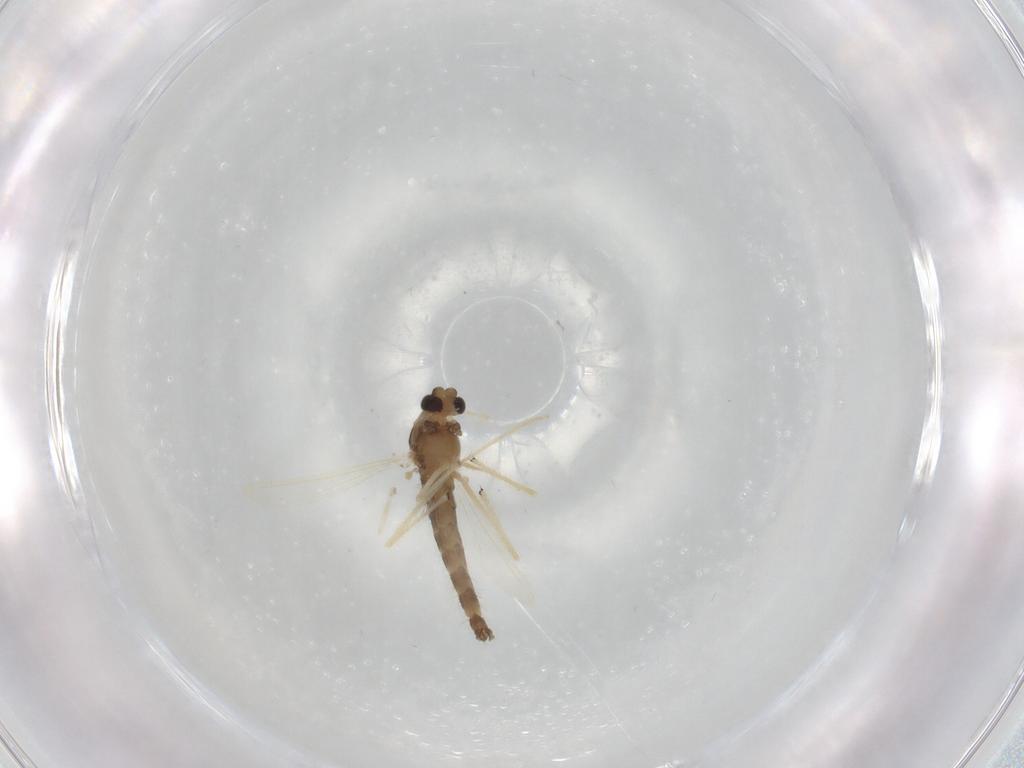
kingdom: Animalia
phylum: Arthropoda
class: Insecta
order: Diptera
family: Chironomidae
